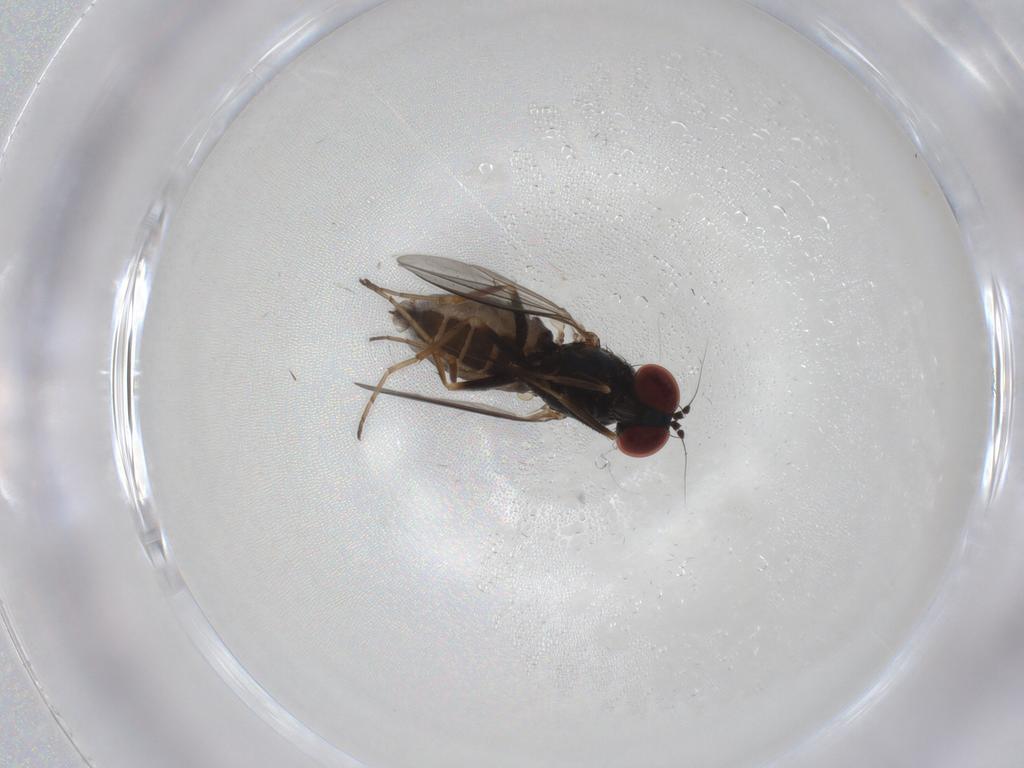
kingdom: Animalia
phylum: Arthropoda
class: Insecta
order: Diptera
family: Dolichopodidae
